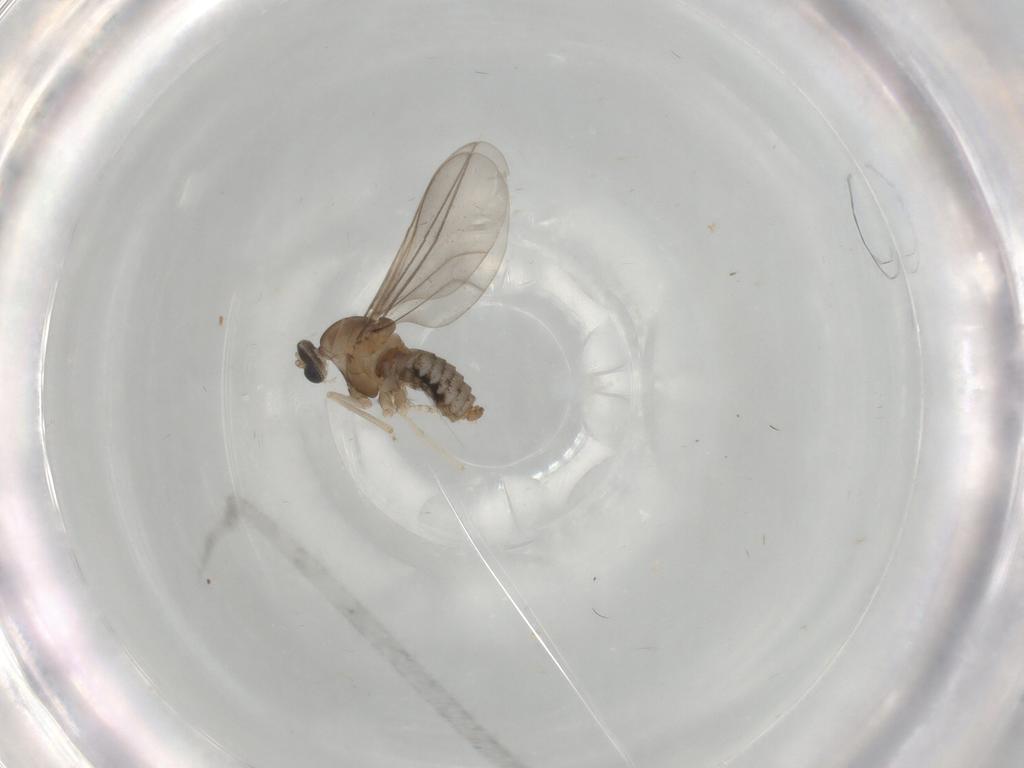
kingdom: Animalia
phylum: Arthropoda
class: Insecta
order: Diptera
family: Cecidomyiidae
